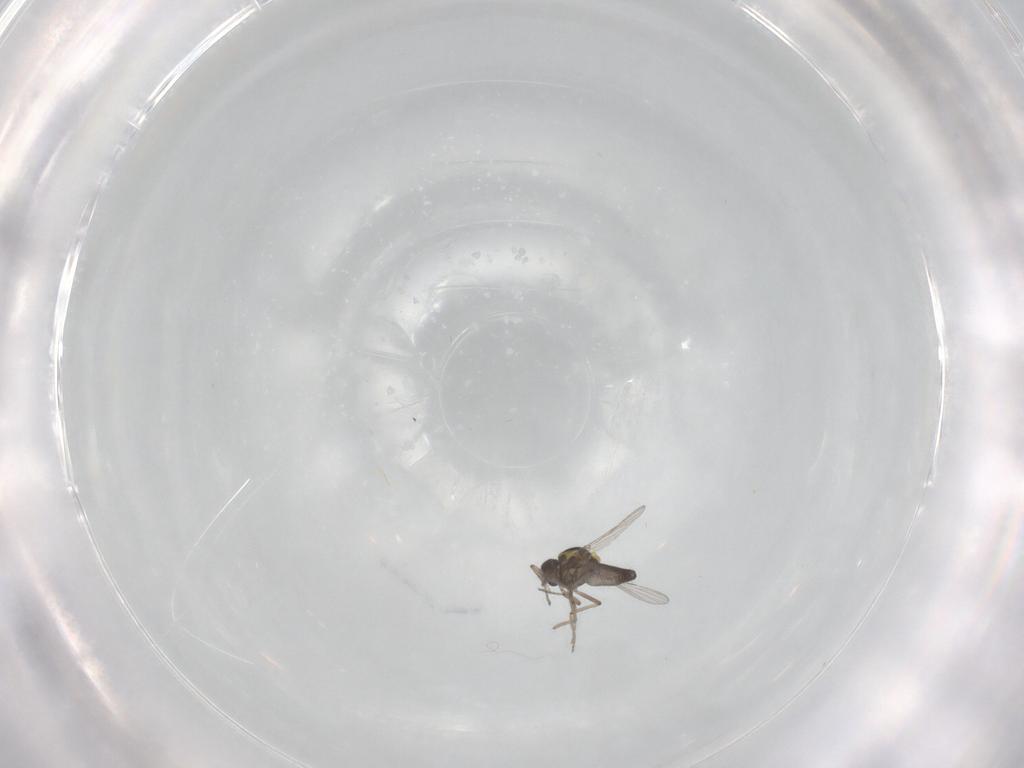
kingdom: Animalia
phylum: Arthropoda
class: Insecta
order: Diptera
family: Ceratopogonidae
